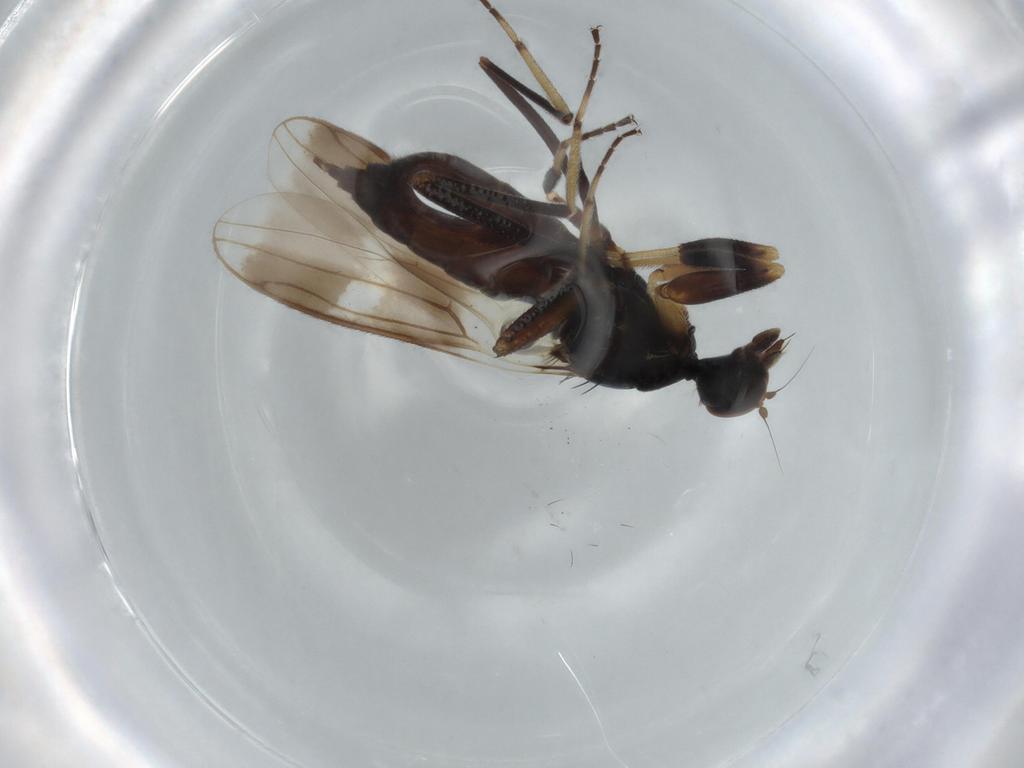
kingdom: Animalia
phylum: Arthropoda
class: Insecta
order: Diptera
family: Hybotidae
